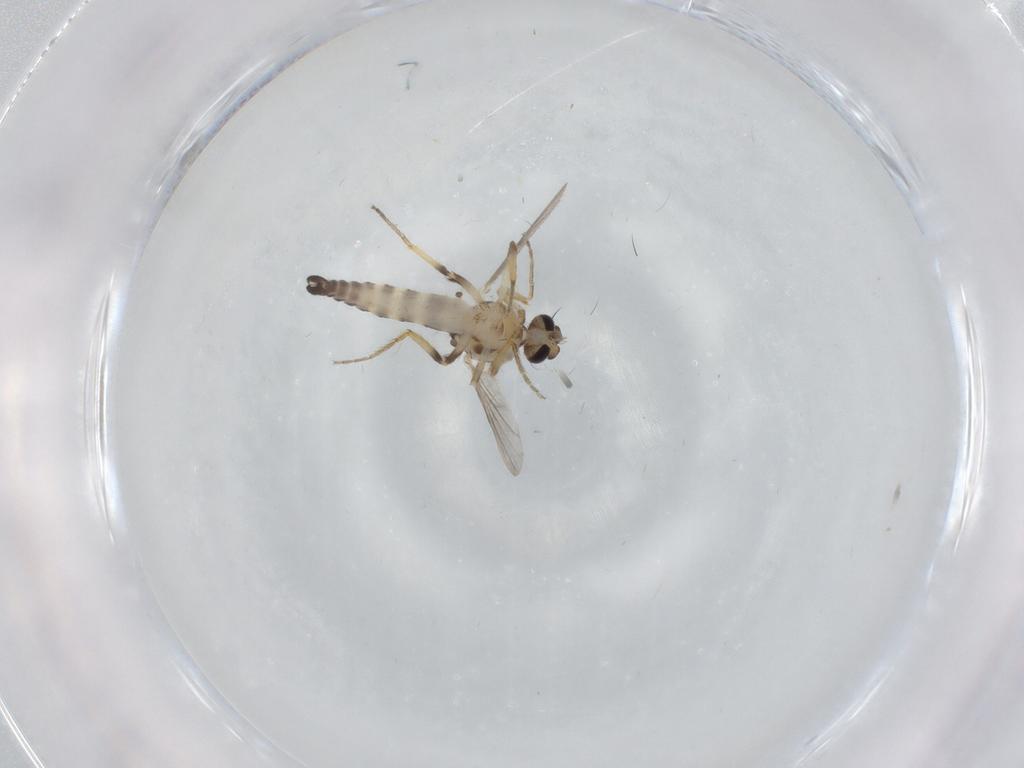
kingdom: Animalia
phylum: Arthropoda
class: Insecta
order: Diptera
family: Ceratopogonidae
